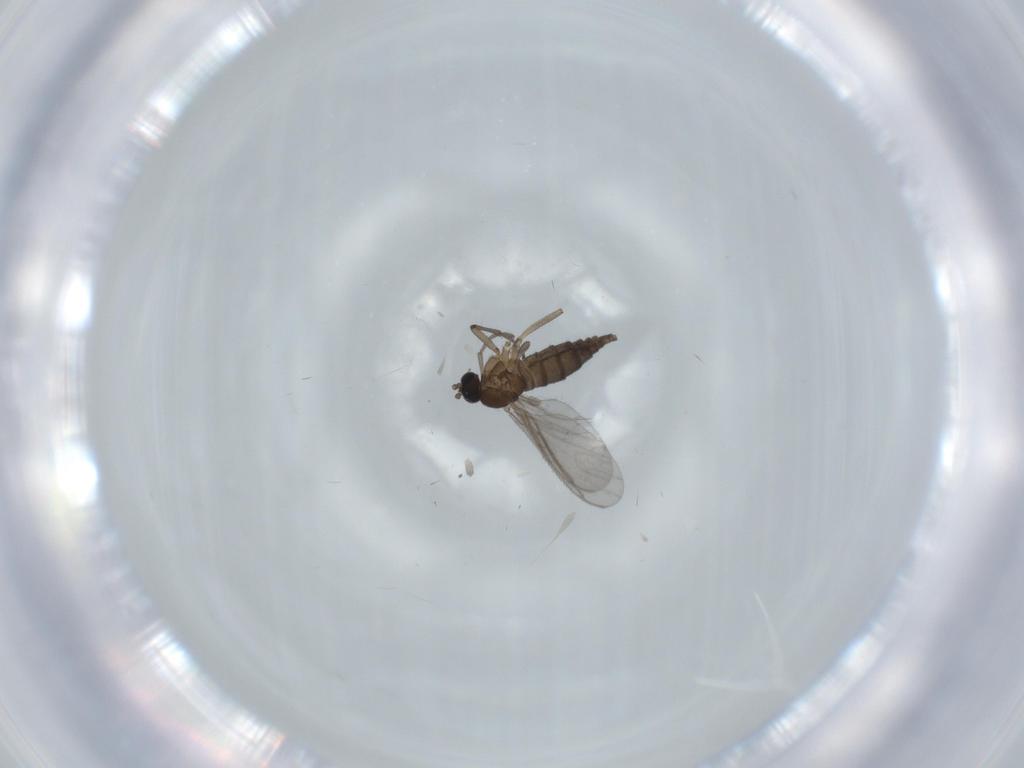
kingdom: Animalia
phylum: Arthropoda
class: Insecta
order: Diptera
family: Sciaridae
